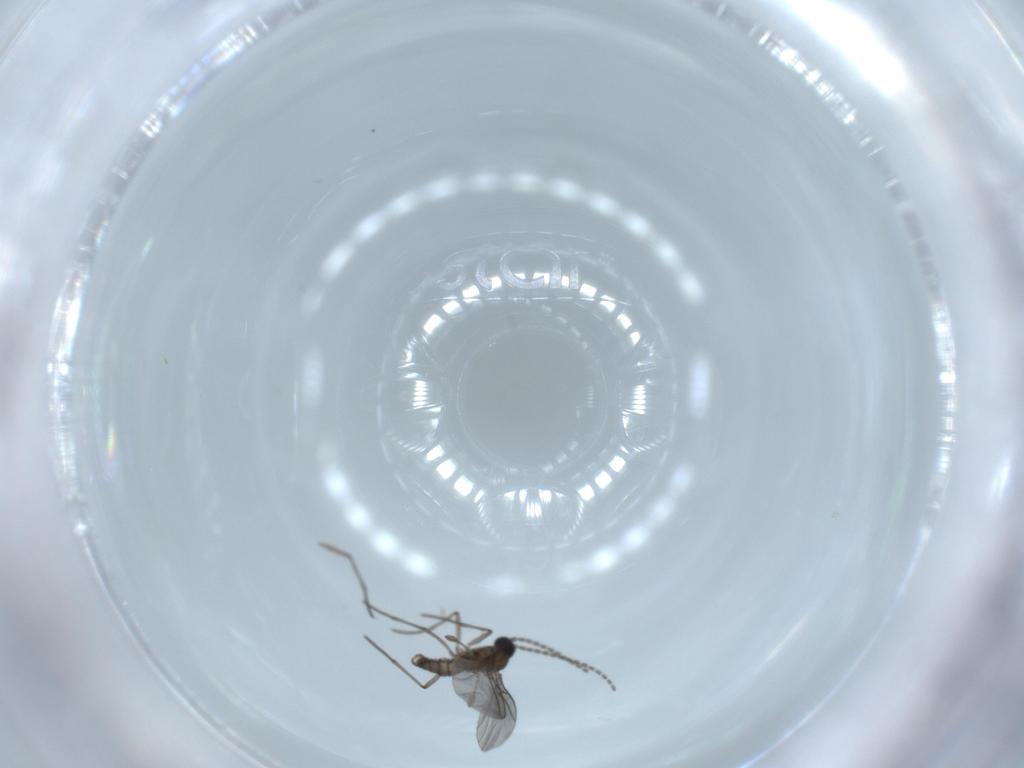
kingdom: Animalia
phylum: Arthropoda
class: Insecta
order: Diptera
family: Sciaridae
